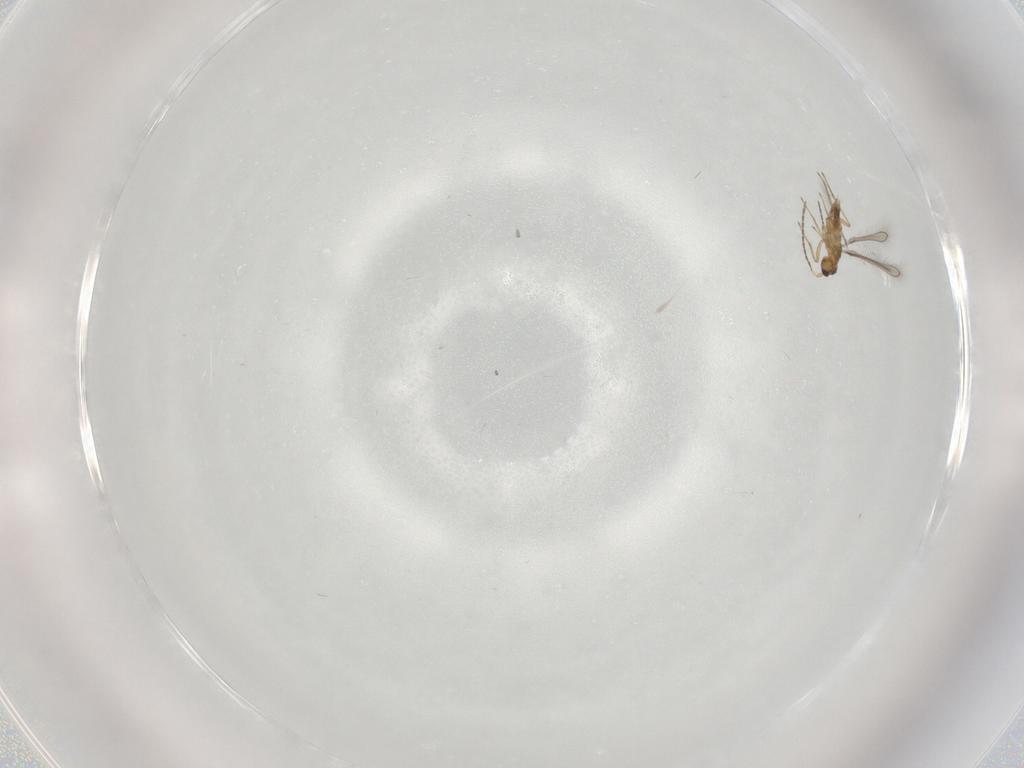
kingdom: Animalia
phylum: Arthropoda
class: Insecta
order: Hymenoptera
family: Mymaridae
